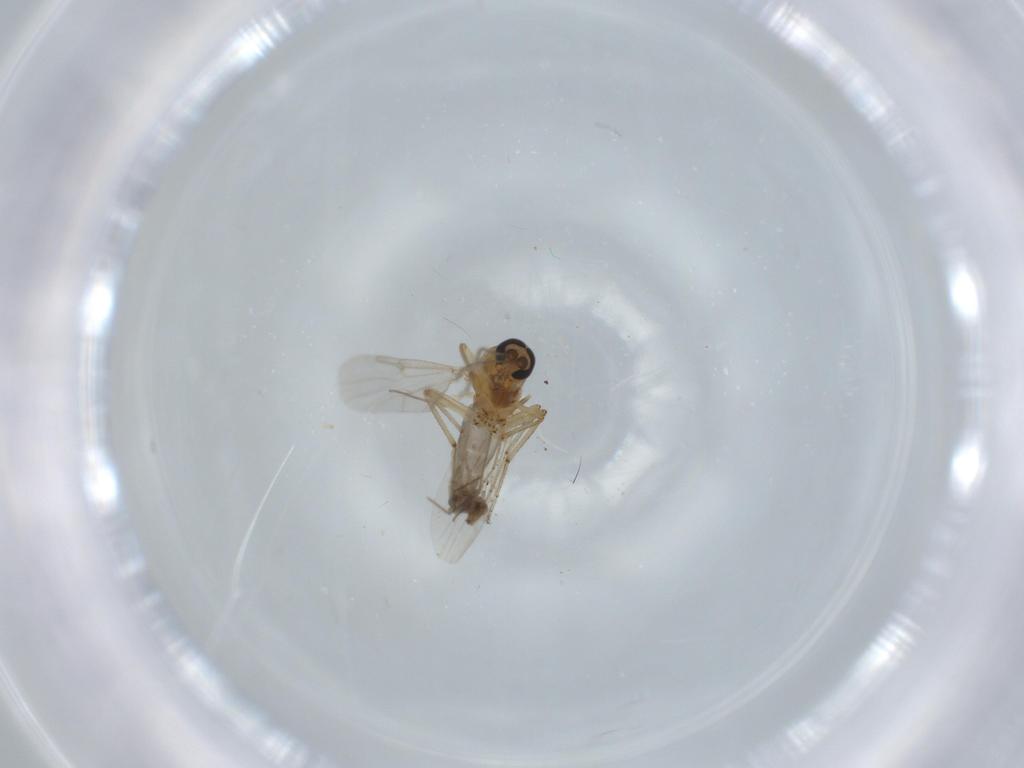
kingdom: Animalia
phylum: Arthropoda
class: Insecta
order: Diptera
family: Ceratopogonidae
